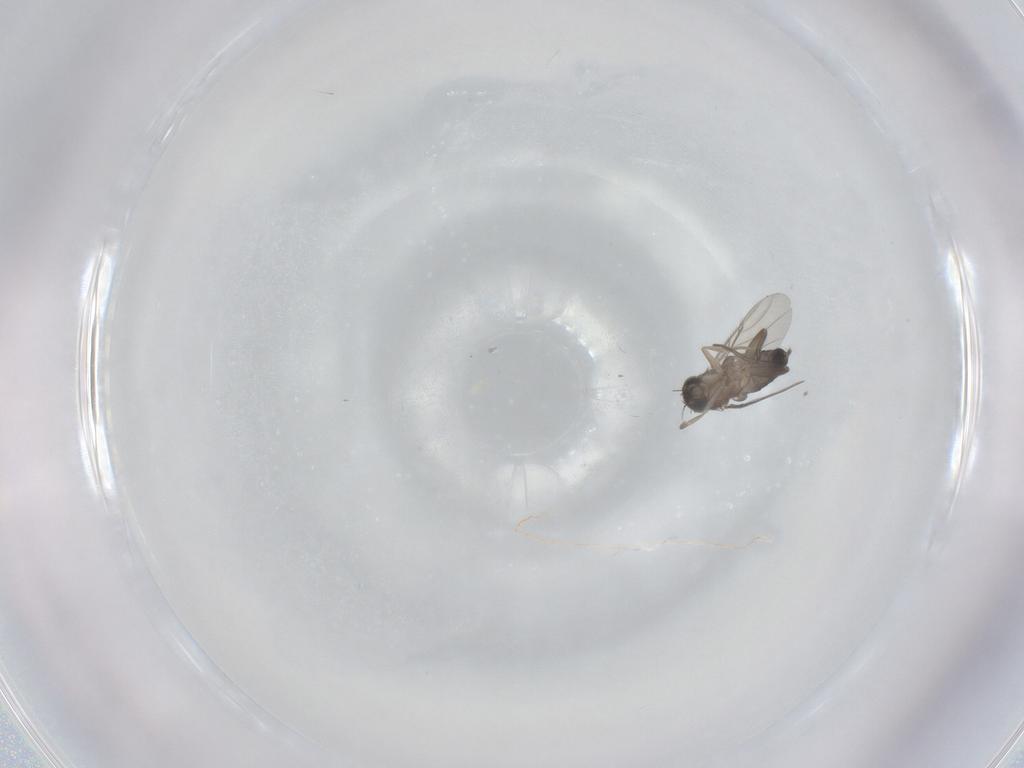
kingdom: Animalia
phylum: Arthropoda
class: Insecta
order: Diptera
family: Phoridae
